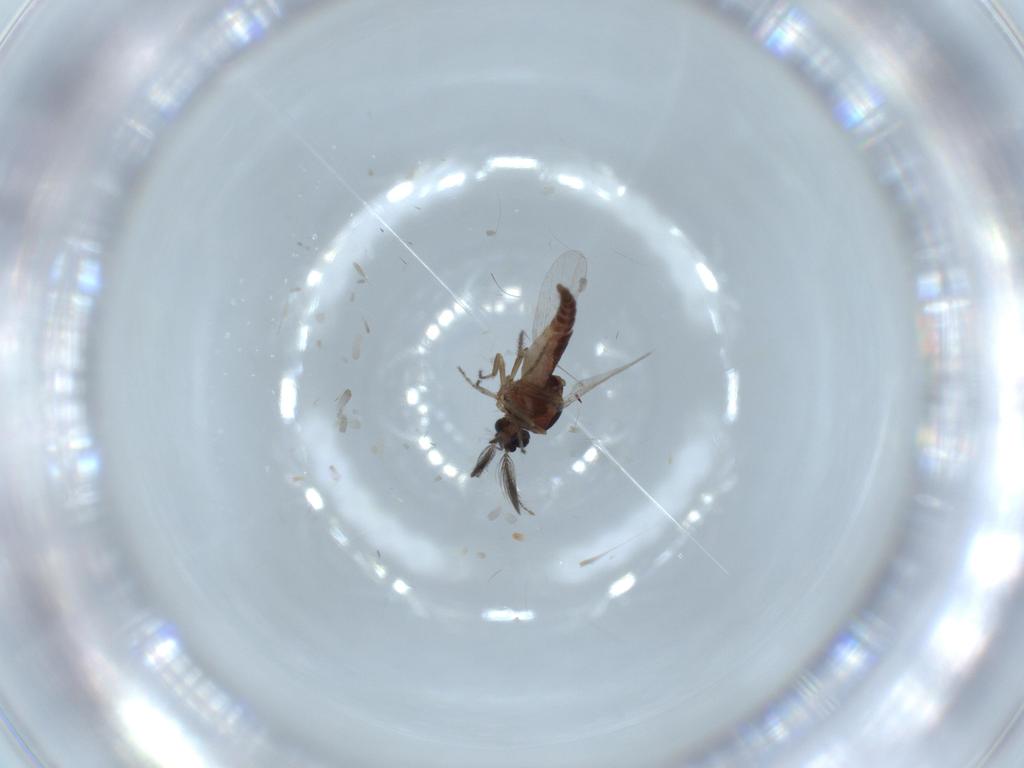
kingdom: Animalia
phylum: Arthropoda
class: Insecta
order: Diptera
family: Ceratopogonidae
